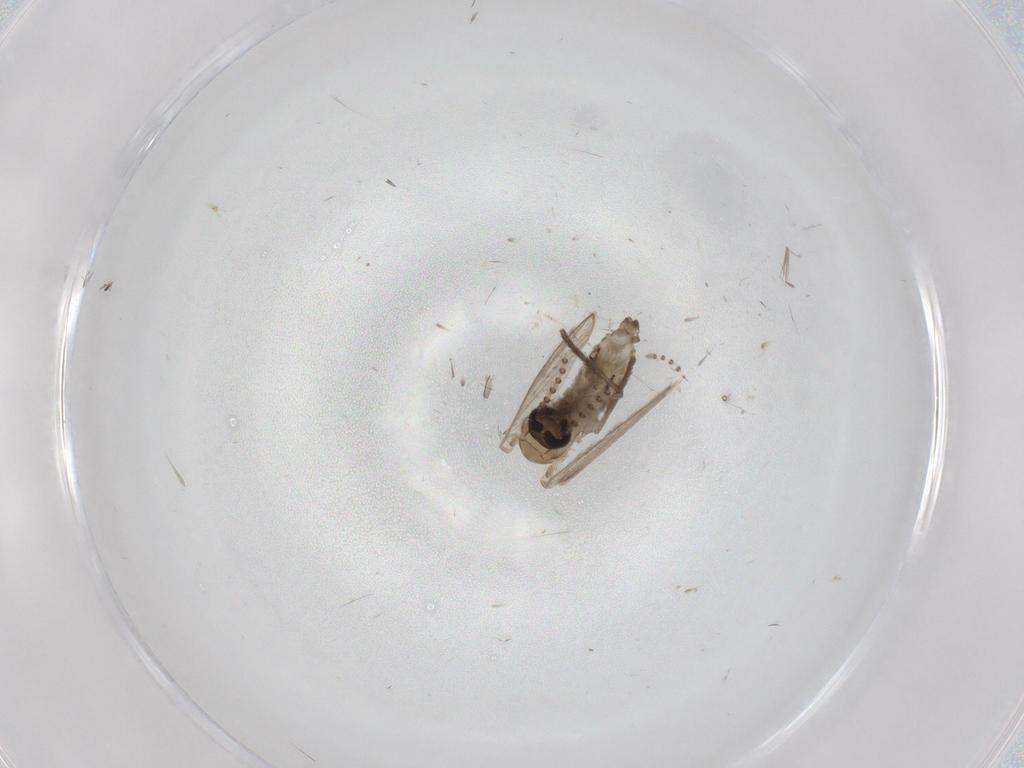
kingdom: Animalia
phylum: Arthropoda
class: Insecta
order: Diptera
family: Psychodidae
